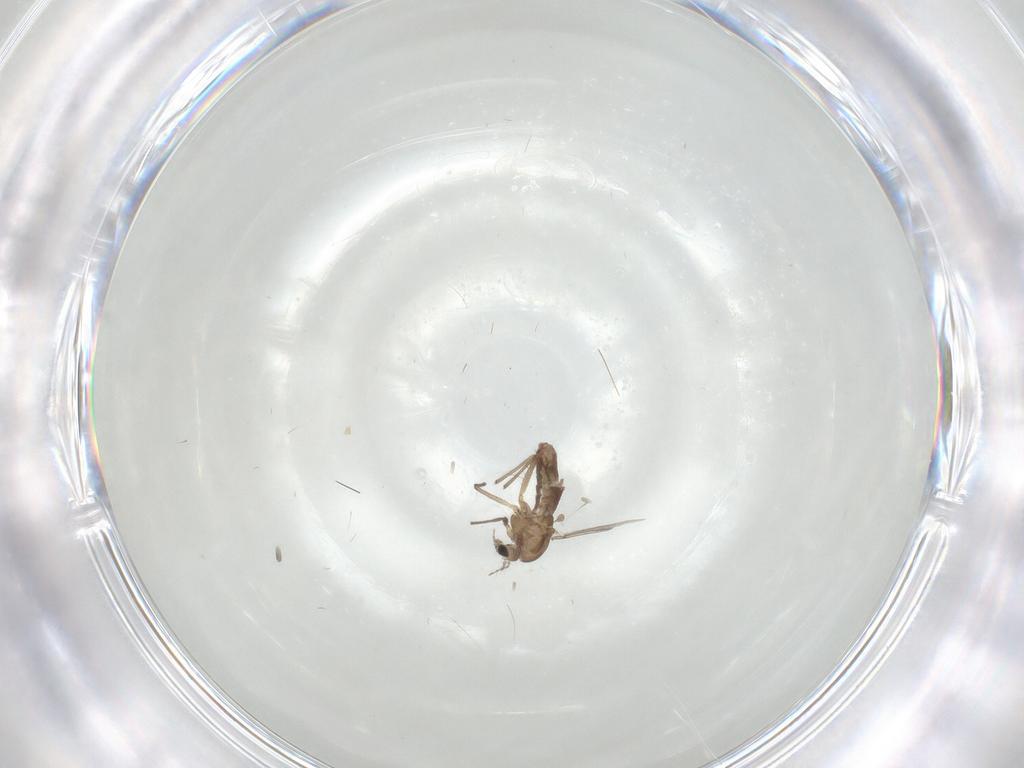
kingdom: Animalia
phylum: Arthropoda
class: Insecta
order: Diptera
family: Chironomidae
